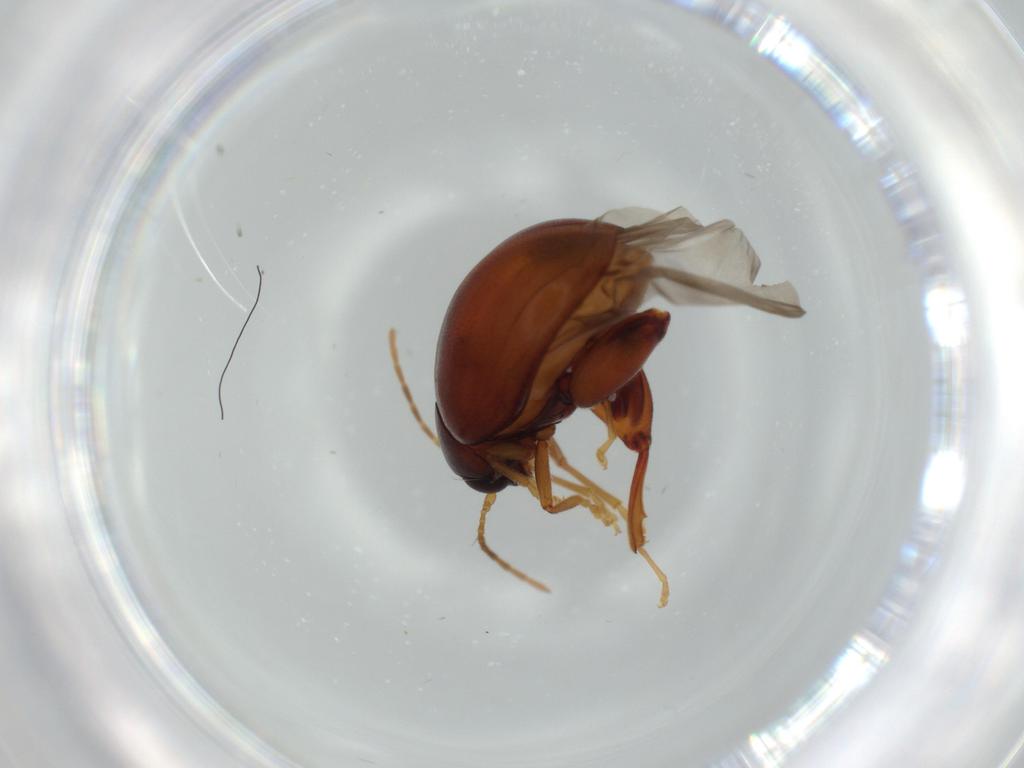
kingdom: Animalia
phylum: Arthropoda
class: Insecta
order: Coleoptera
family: Chrysomelidae
